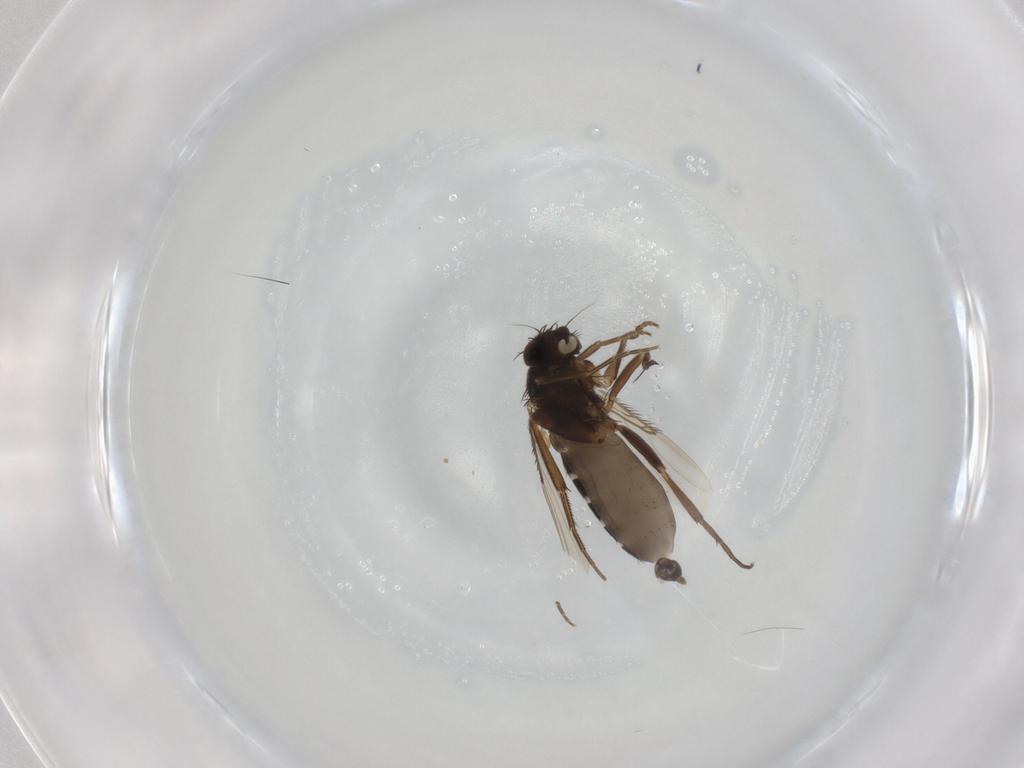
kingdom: Animalia
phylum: Arthropoda
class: Insecta
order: Diptera
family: Phoridae
